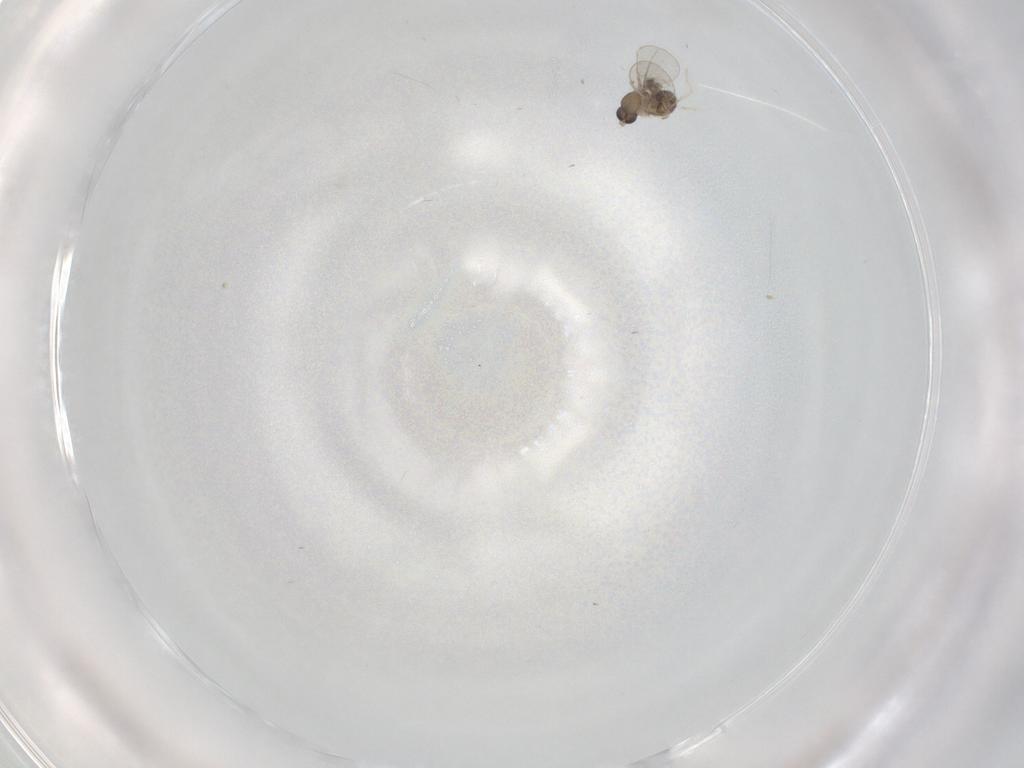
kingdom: Animalia
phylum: Arthropoda
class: Insecta
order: Diptera
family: Cecidomyiidae
